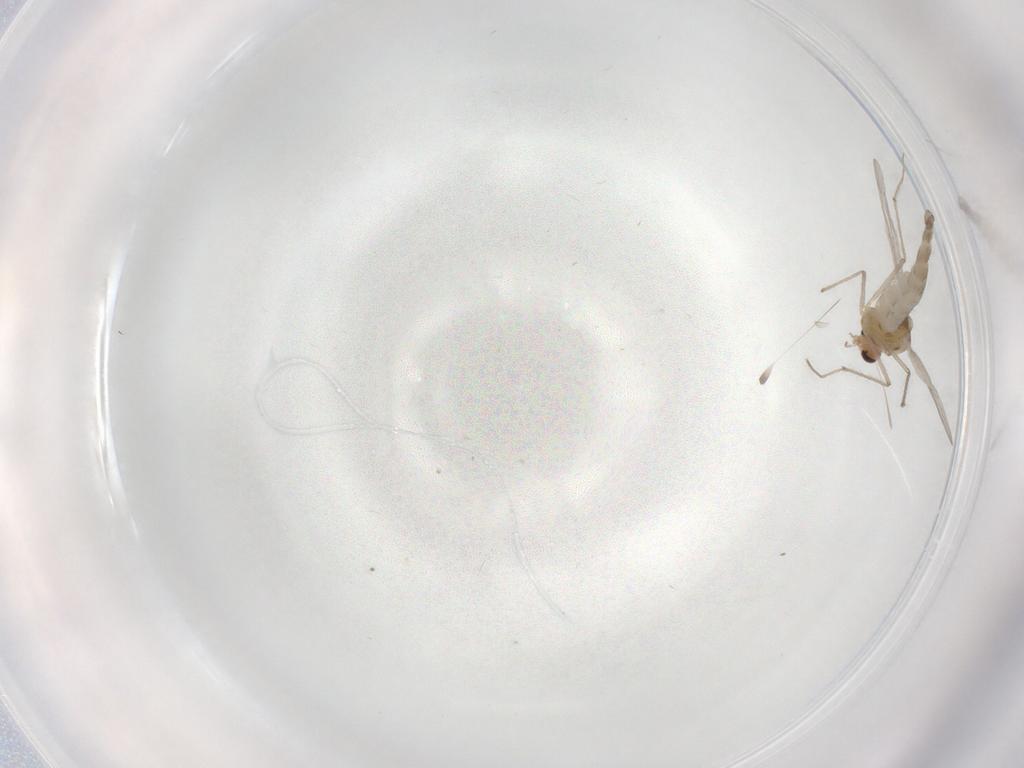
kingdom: Animalia
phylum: Arthropoda
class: Insecta
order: Diptera
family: Chironomidae
